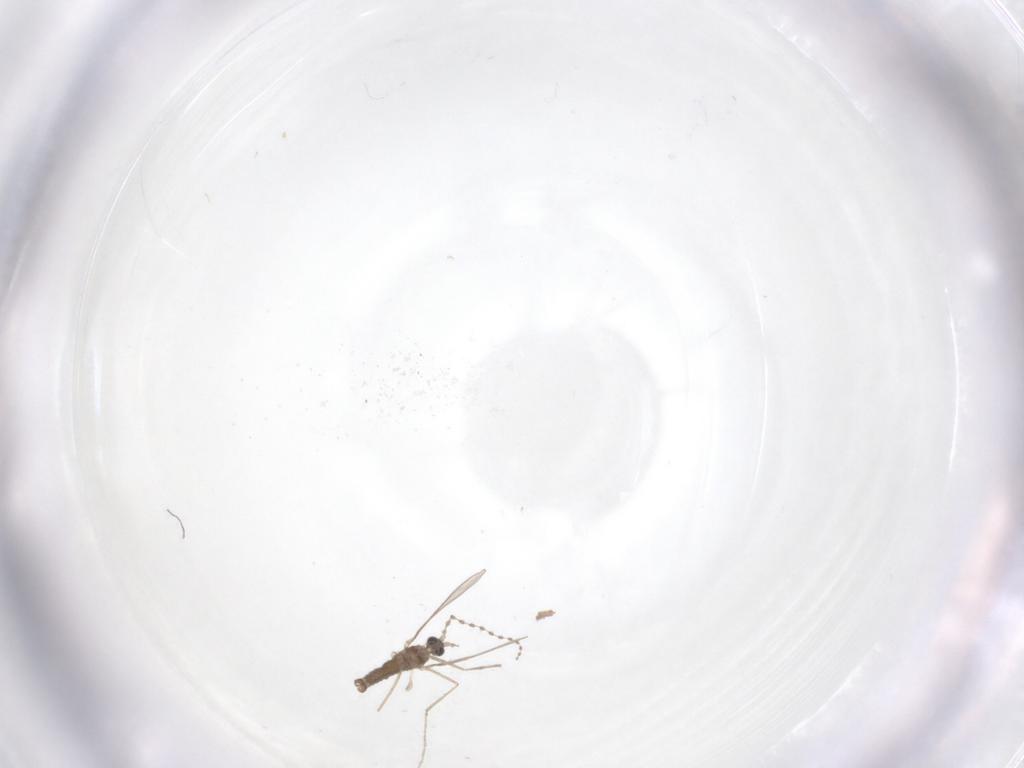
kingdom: Animalia
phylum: Arthropoda
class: Insecta
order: Diptera
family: Cecidomyiidae
